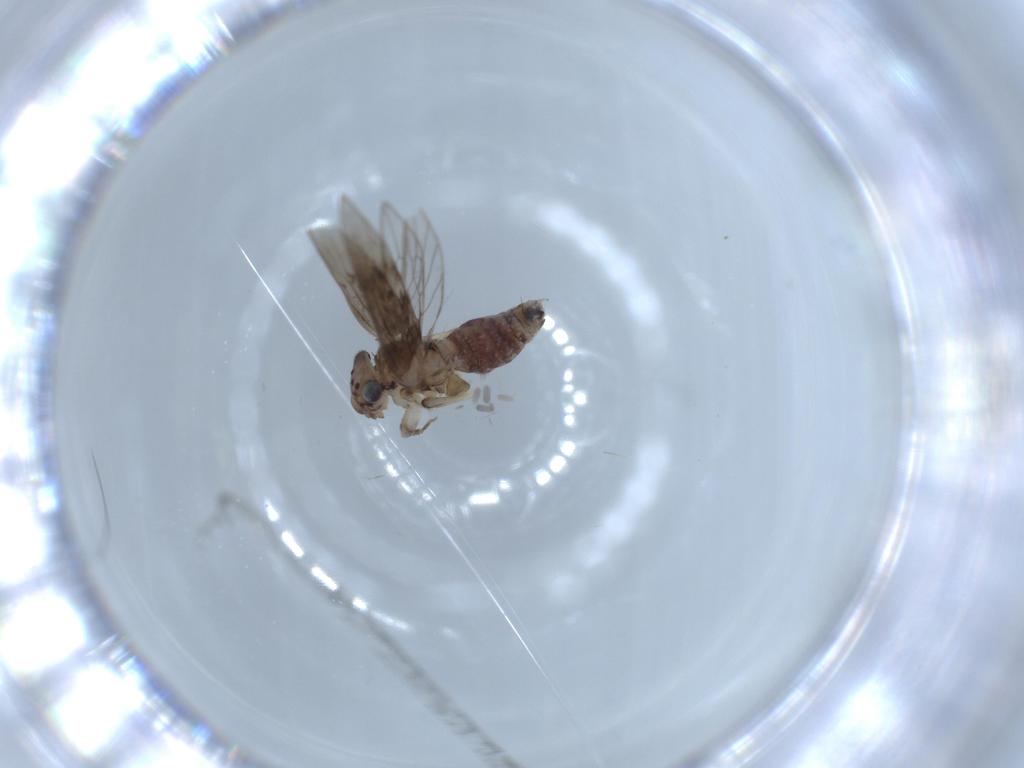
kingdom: Animalia
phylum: Arthropoda
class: Insecta
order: Psocodea
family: Lepidopsocidae
